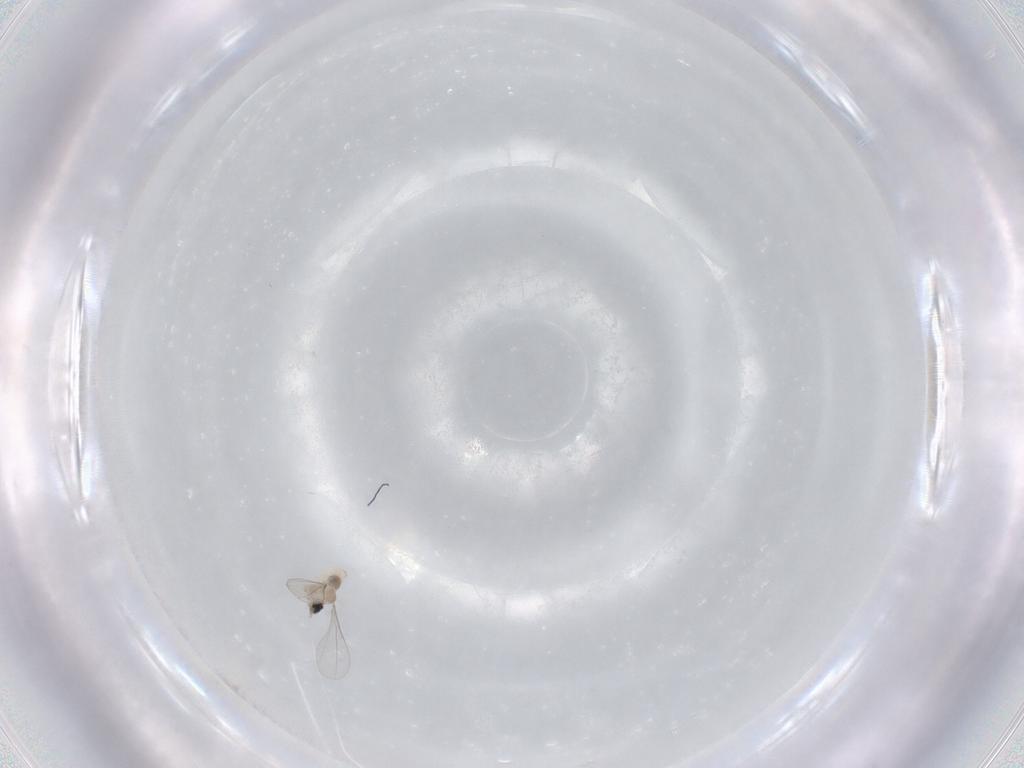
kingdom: Animalia
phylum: Arthropoda
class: Insecta
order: Diptera
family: Cecidomyiidae
